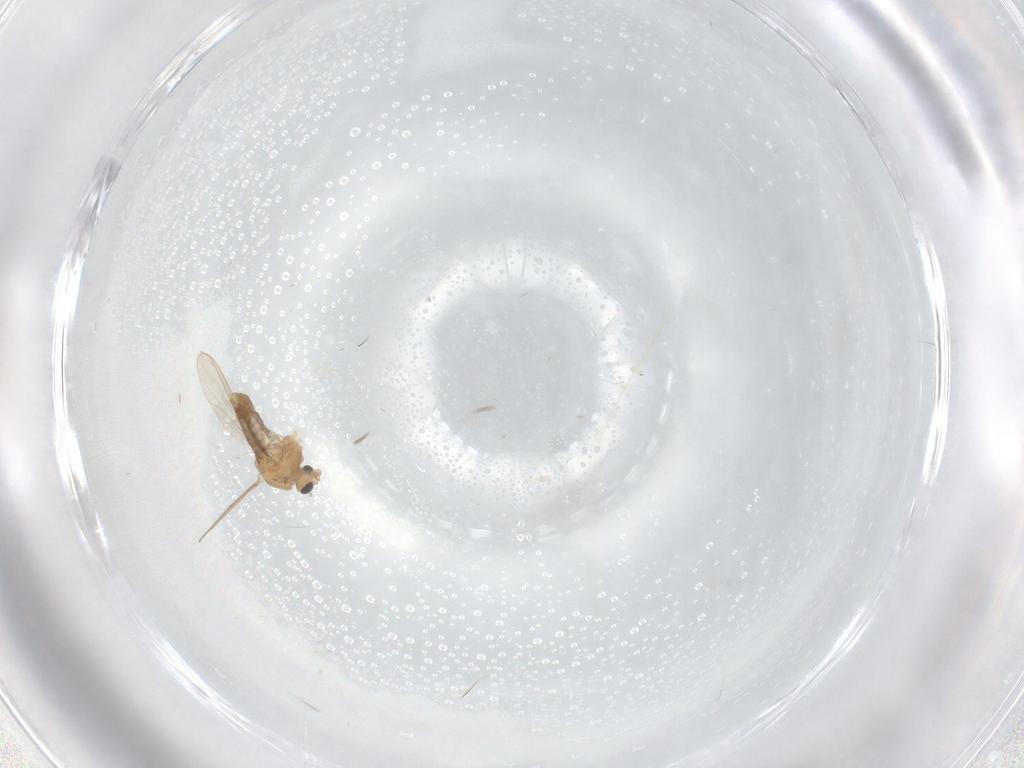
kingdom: Animalia
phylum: Arthropoda
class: Insecta
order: Diptera
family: Chironomidae
